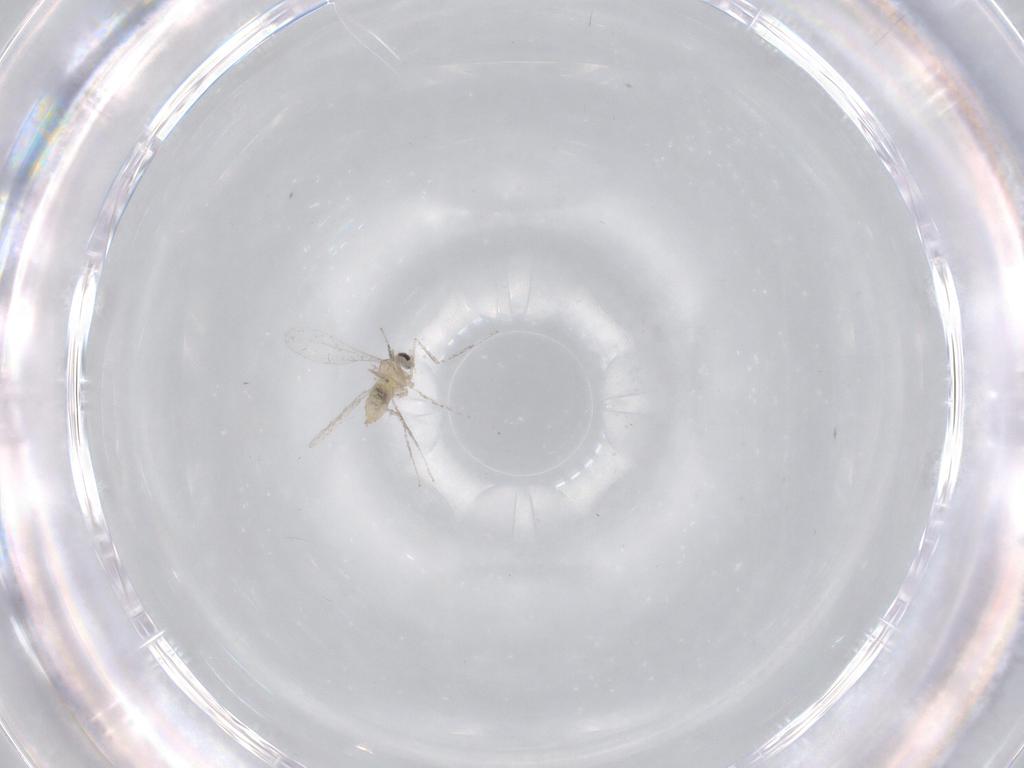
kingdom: Animalia
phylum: Arthropoda
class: Insecta
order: Diptera
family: Cecidomyiidae
